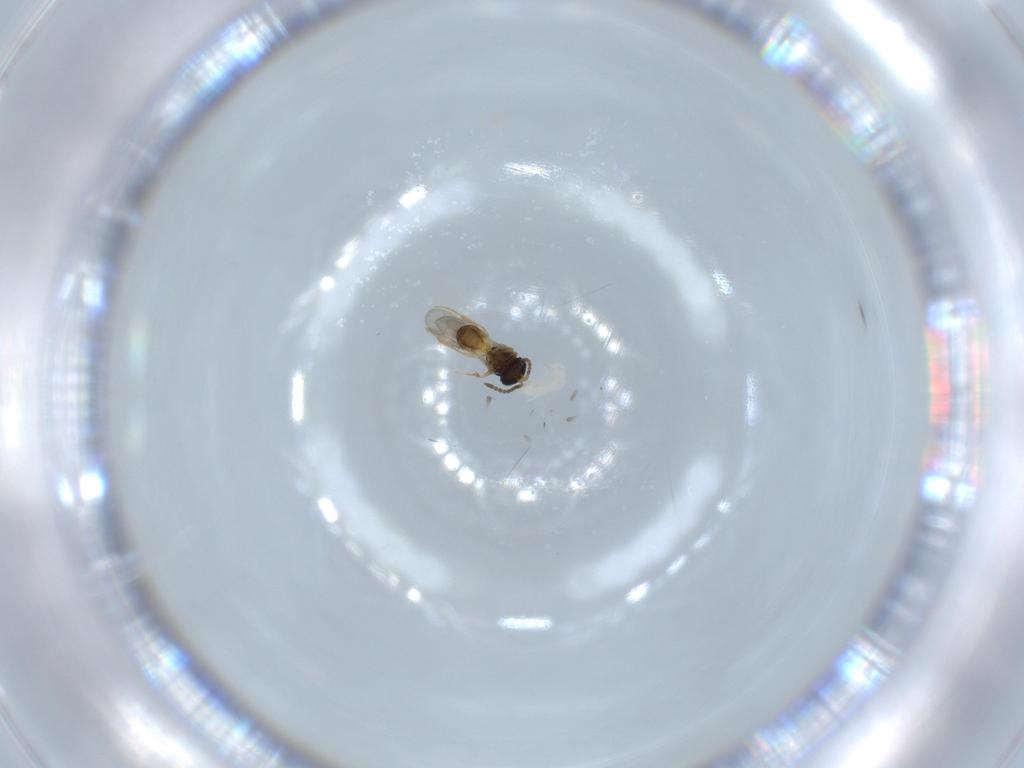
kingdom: Animalia
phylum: Arthropoda
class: Insecta
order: Hymenoptera
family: Scelionidae
